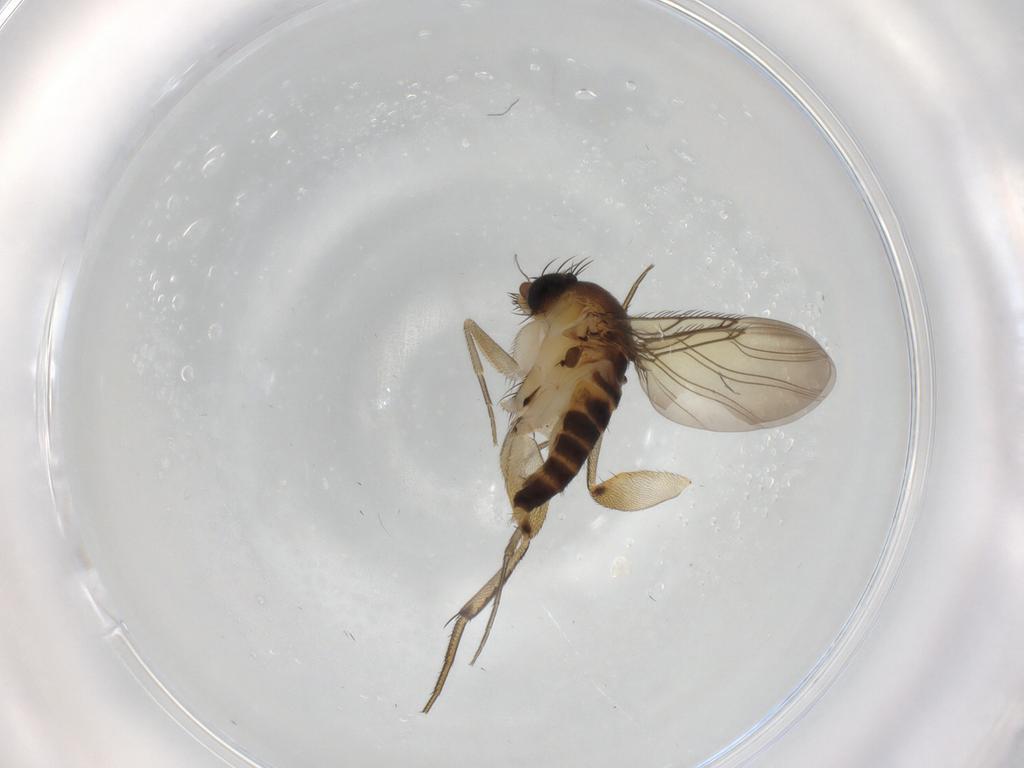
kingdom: Animalia
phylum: Arthropoda
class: Insecta
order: Diptera
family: Phoridae
